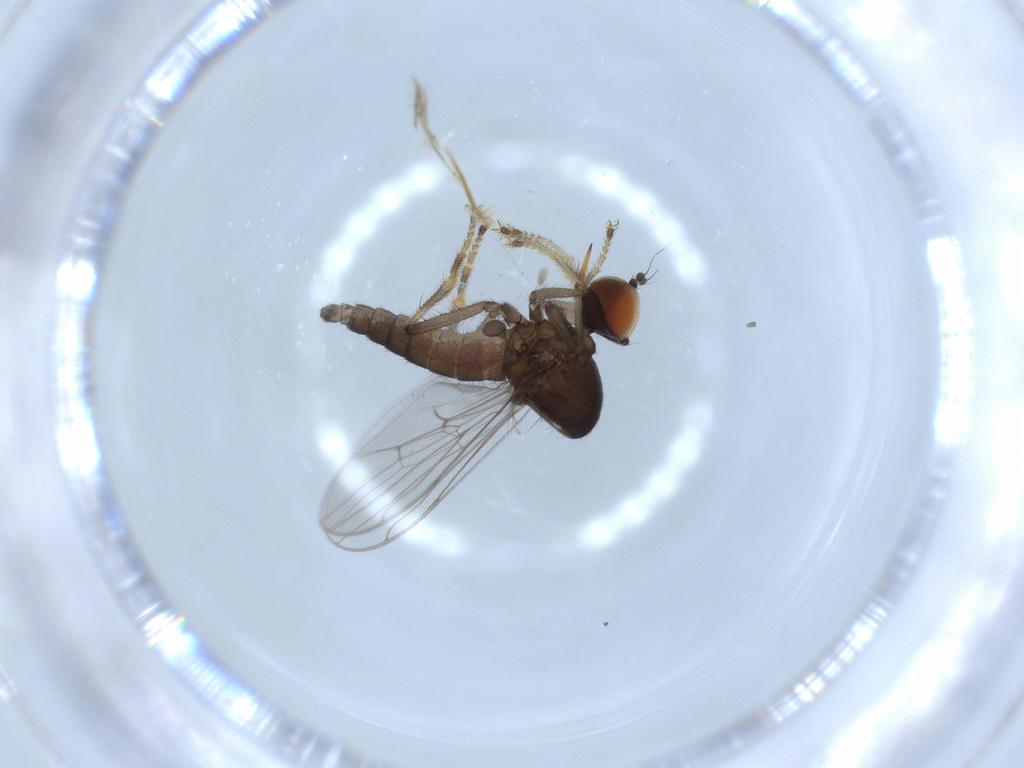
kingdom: Animalia
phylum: Arthropoda
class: Insecta
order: Diptera
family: Hybotidae
